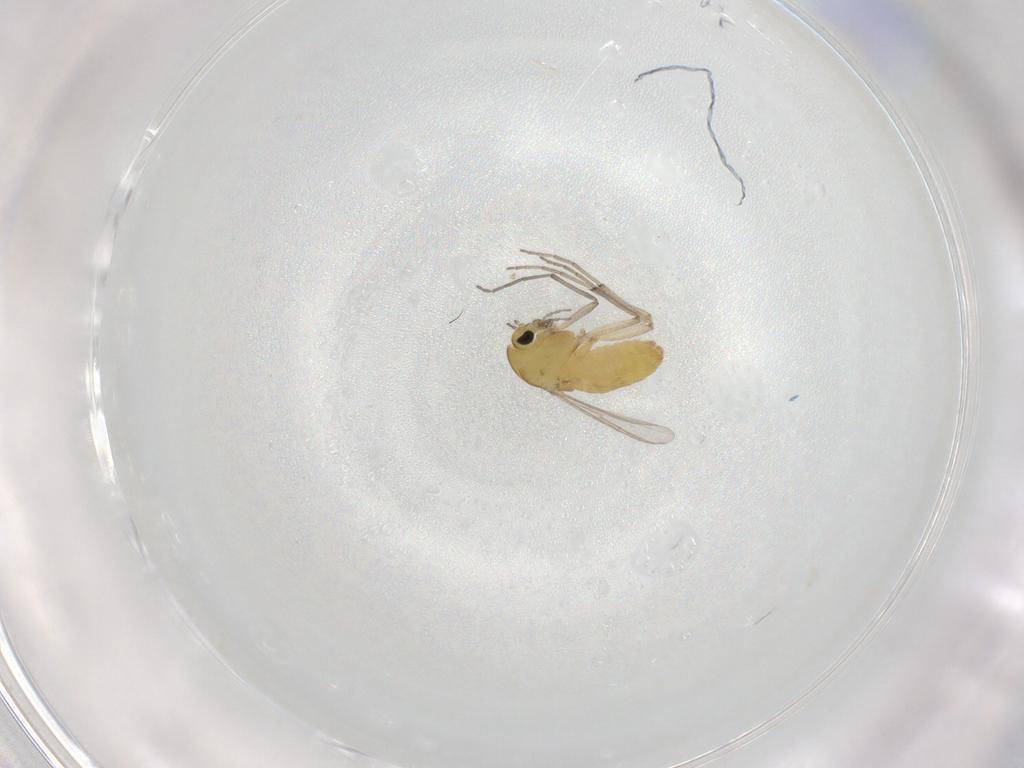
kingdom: Animalia
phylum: Arthropoda
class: Insecta
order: Diptera
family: Chironomidae
